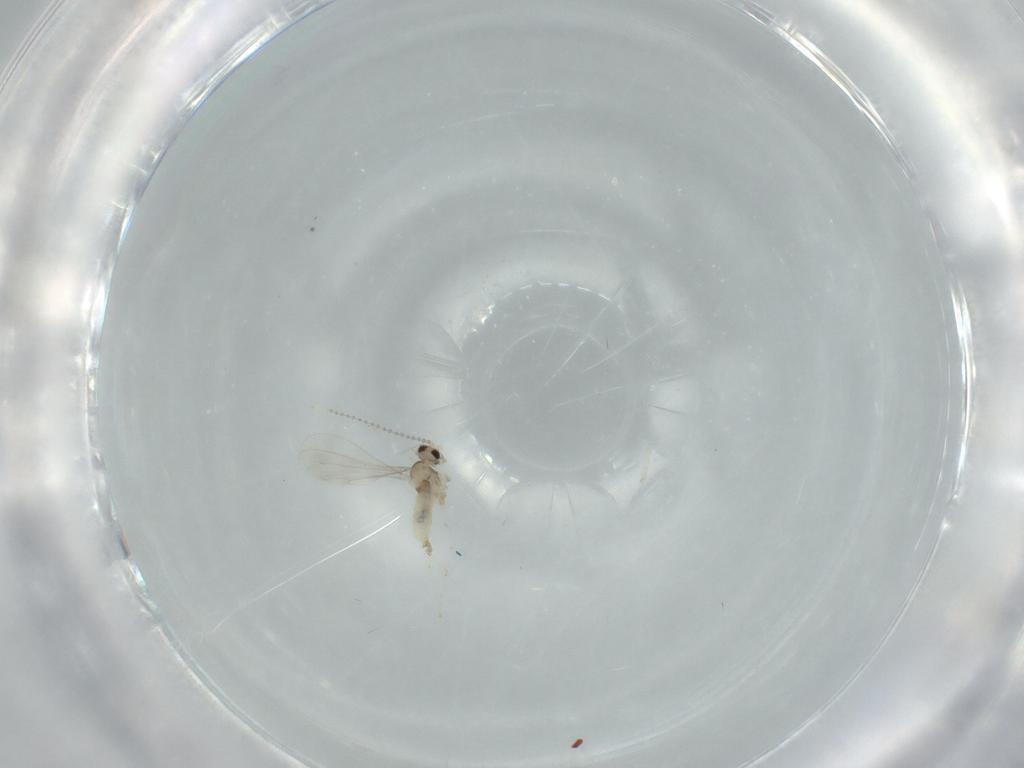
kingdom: Animalia
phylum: Arthropoda
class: Insecta
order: Diptera
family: Cecidomyiidae
